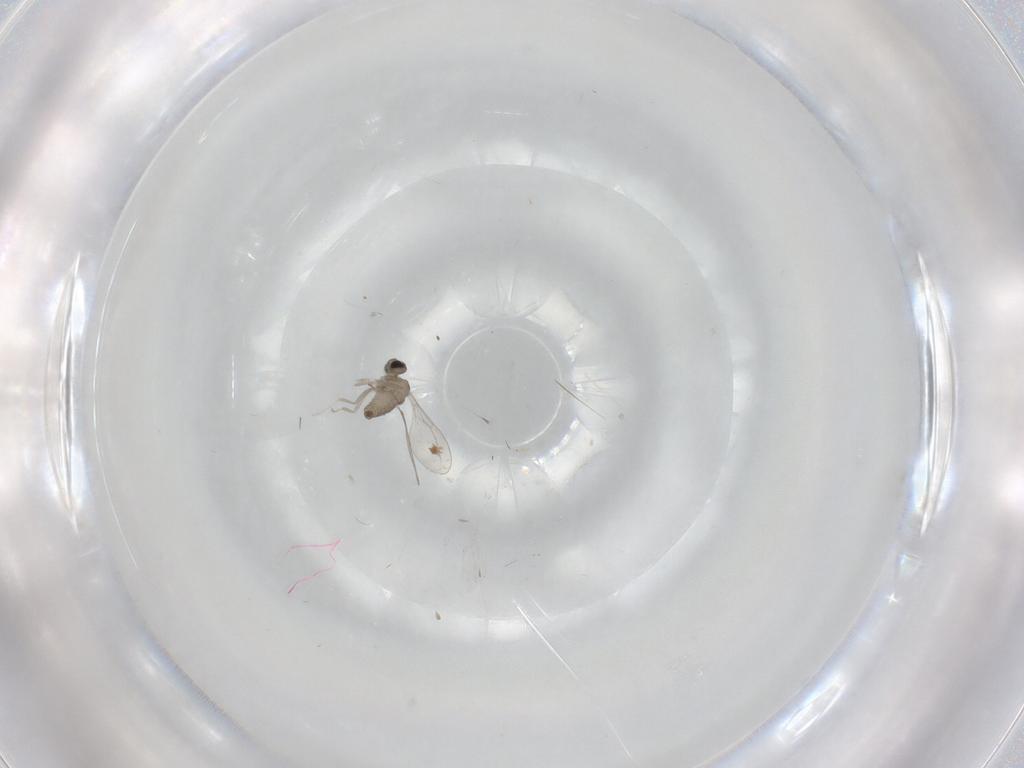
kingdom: Animalia
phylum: Arthropoda
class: Insecta
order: Diptera
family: Cecidomyiidae
